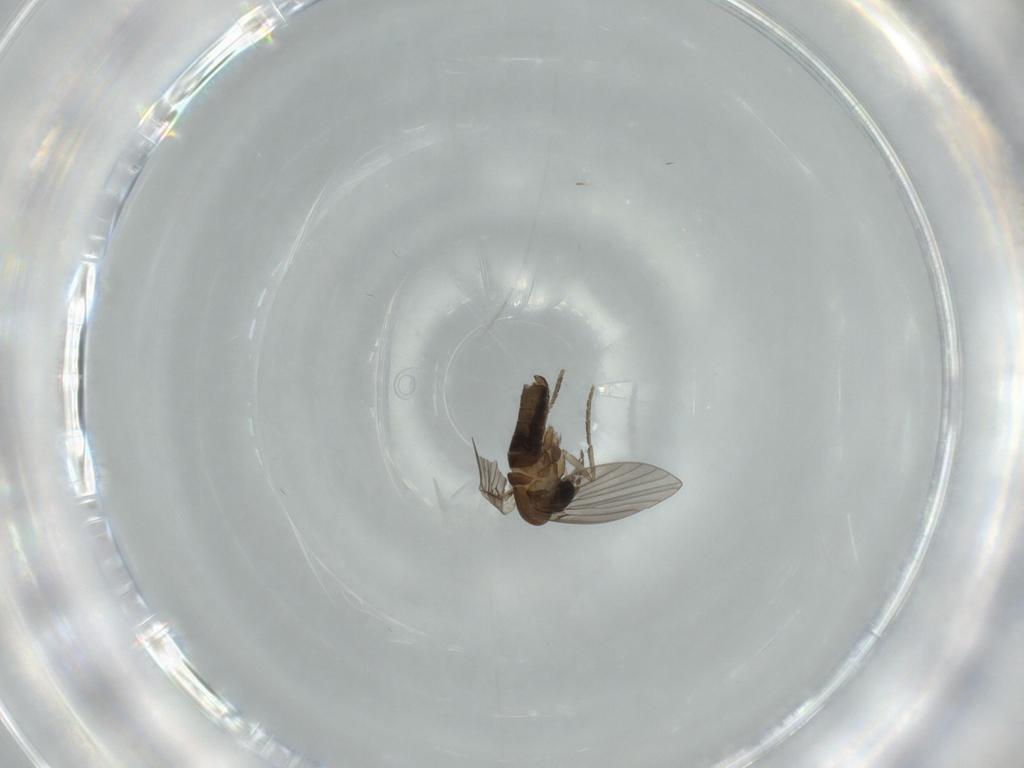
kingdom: Animalia
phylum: Arthropoda
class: Insecta
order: Diptera
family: Psychodidae
